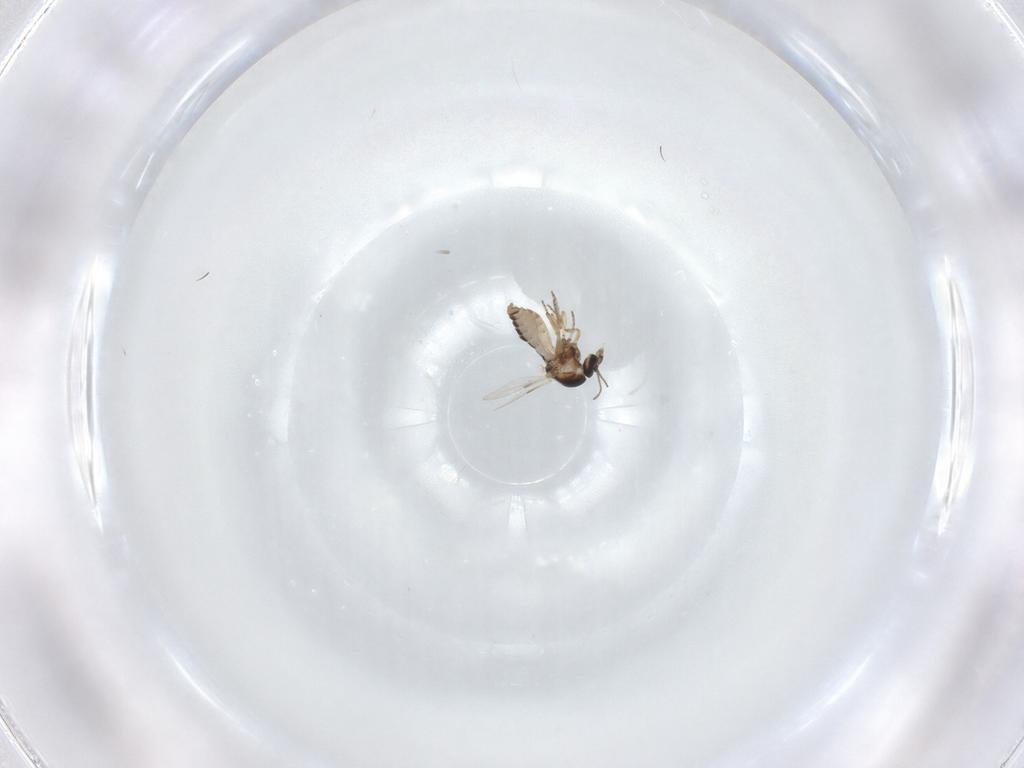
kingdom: Animalia
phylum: Arthropoda
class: Insecta
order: Diptera
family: Ceratopogonidae
